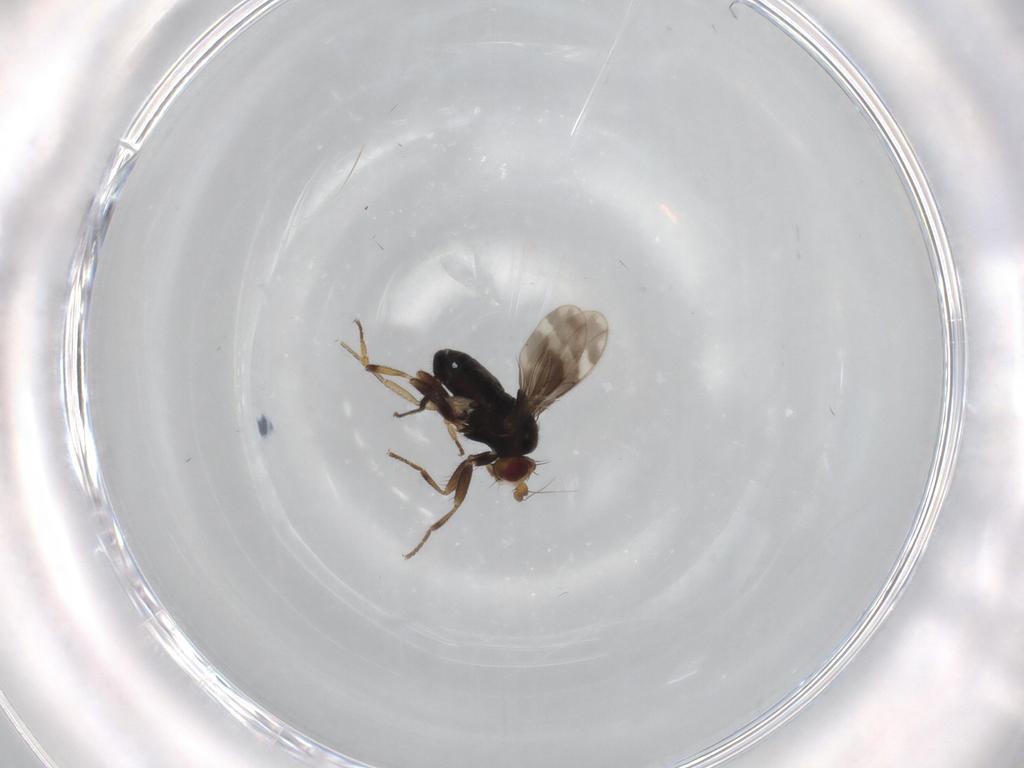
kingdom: Animalia
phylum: Arthropoda
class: Insecta
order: Diptera
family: Sphaeroceridae
